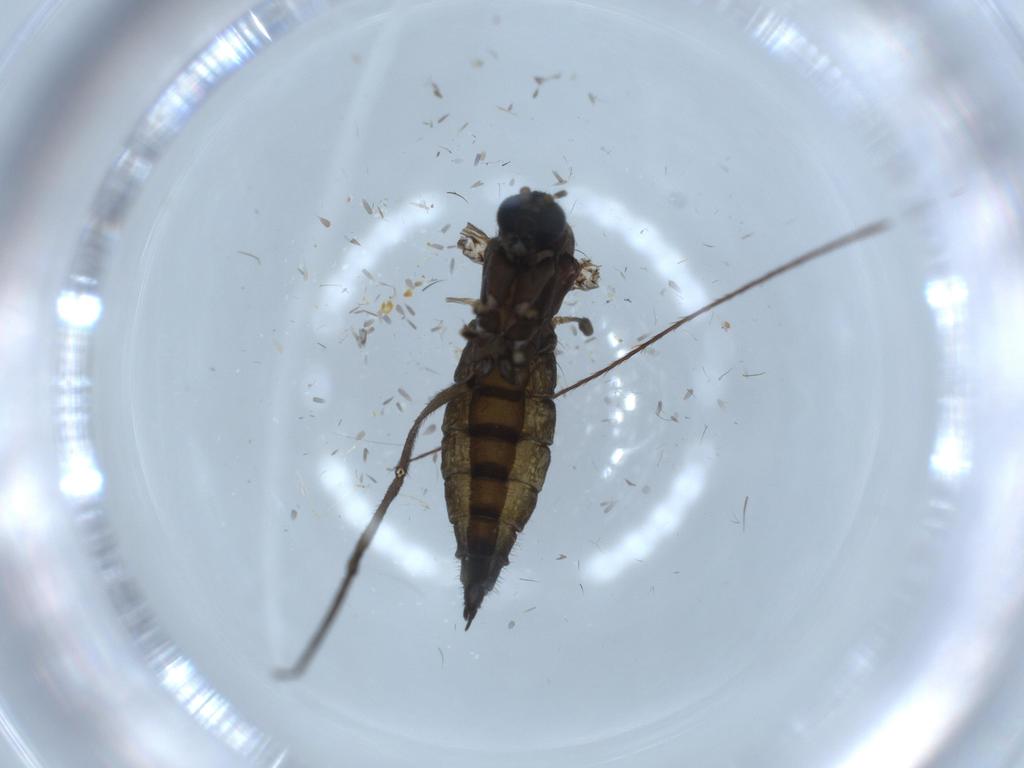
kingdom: Animalia
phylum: Arthropoda
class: Insecta
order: Diptera
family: Sciaridae
